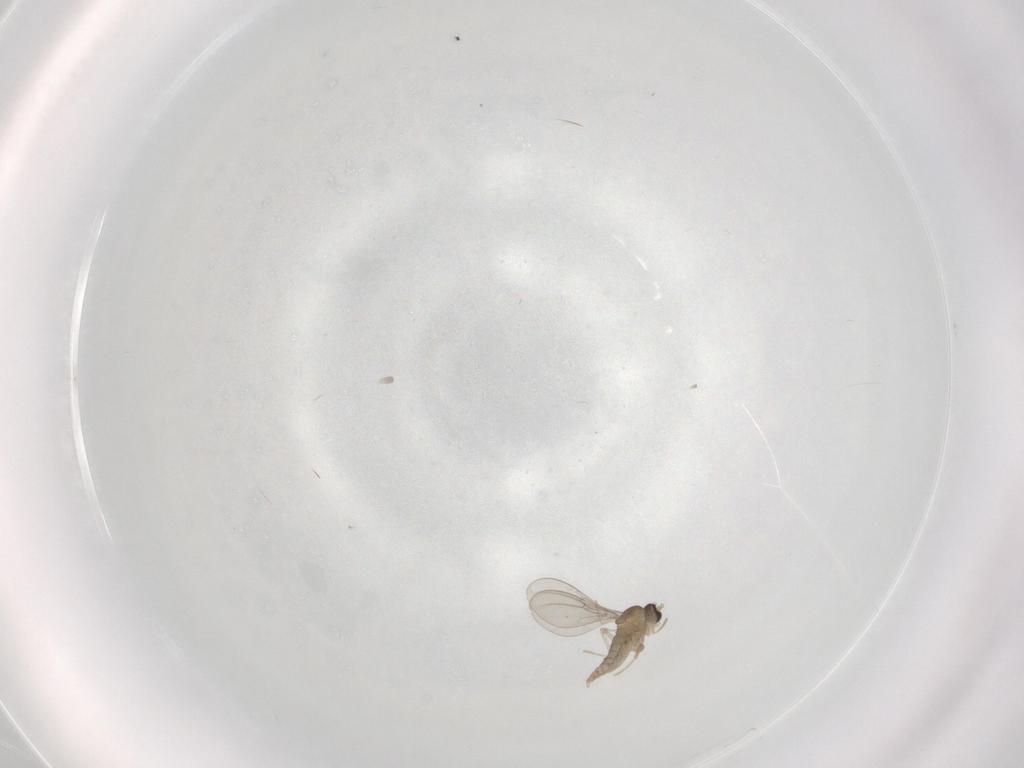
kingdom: Animalia
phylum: Arthropoda
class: Insecta
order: Diptera
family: Cecidomyiidae
